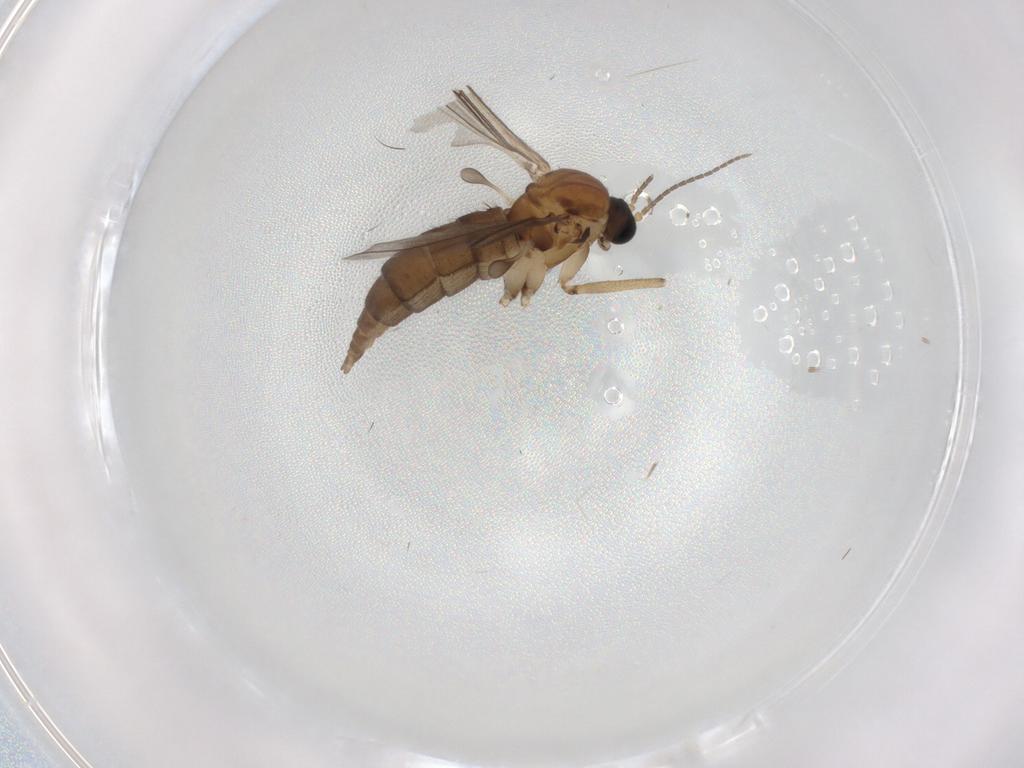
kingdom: Animalia
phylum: Arthropoda
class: Insecta
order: Diptera
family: Sciaridae
